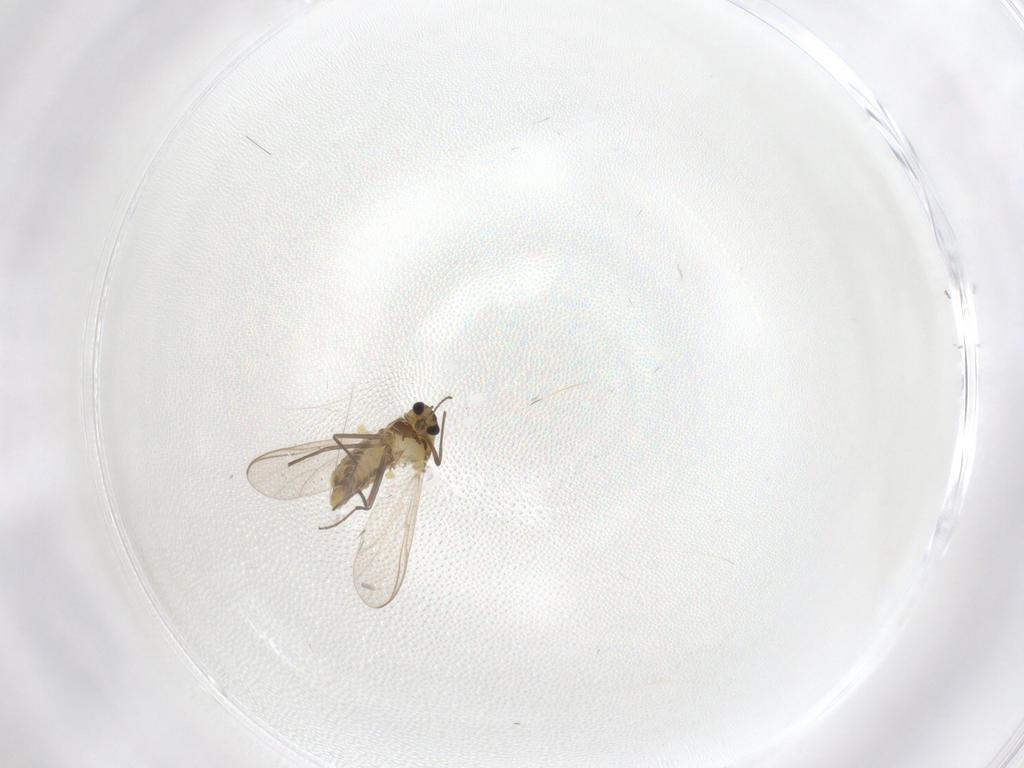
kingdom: Animalia
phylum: Arthropoda
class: Insecta
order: Diptera
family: Chironomidae
